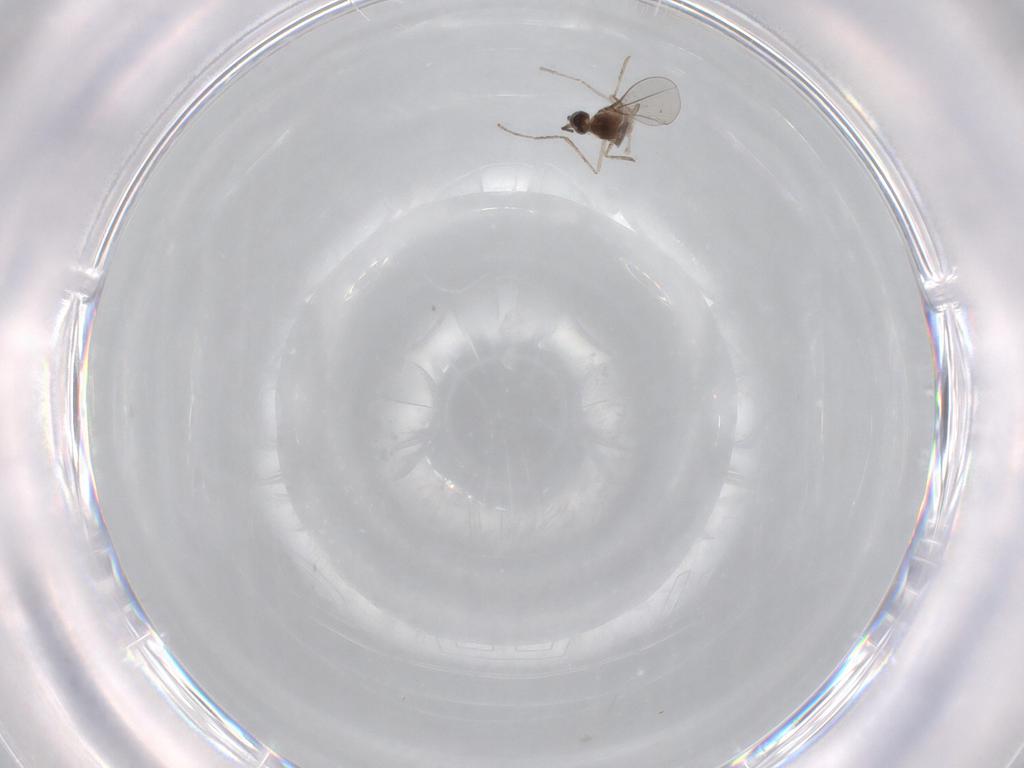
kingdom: Animalia
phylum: Arthropoda
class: Insecta
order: Diptera
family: Cecidomyiidae
